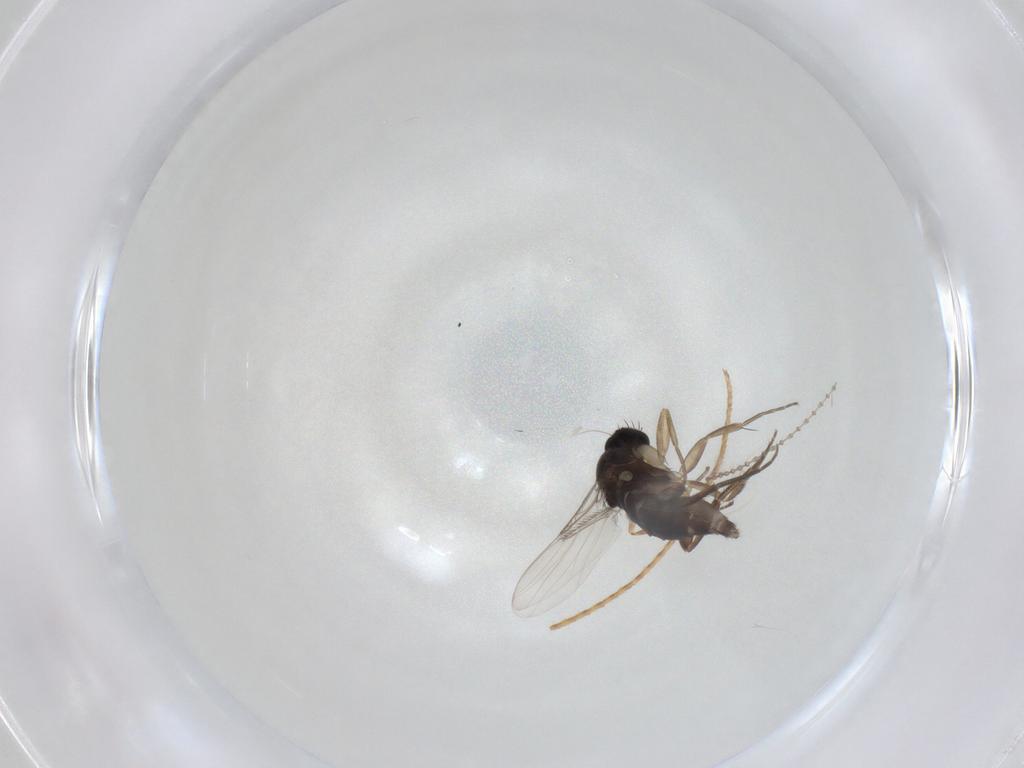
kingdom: Animalia
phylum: Arthropoda
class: Insecta
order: Diptera
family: Phoridae
